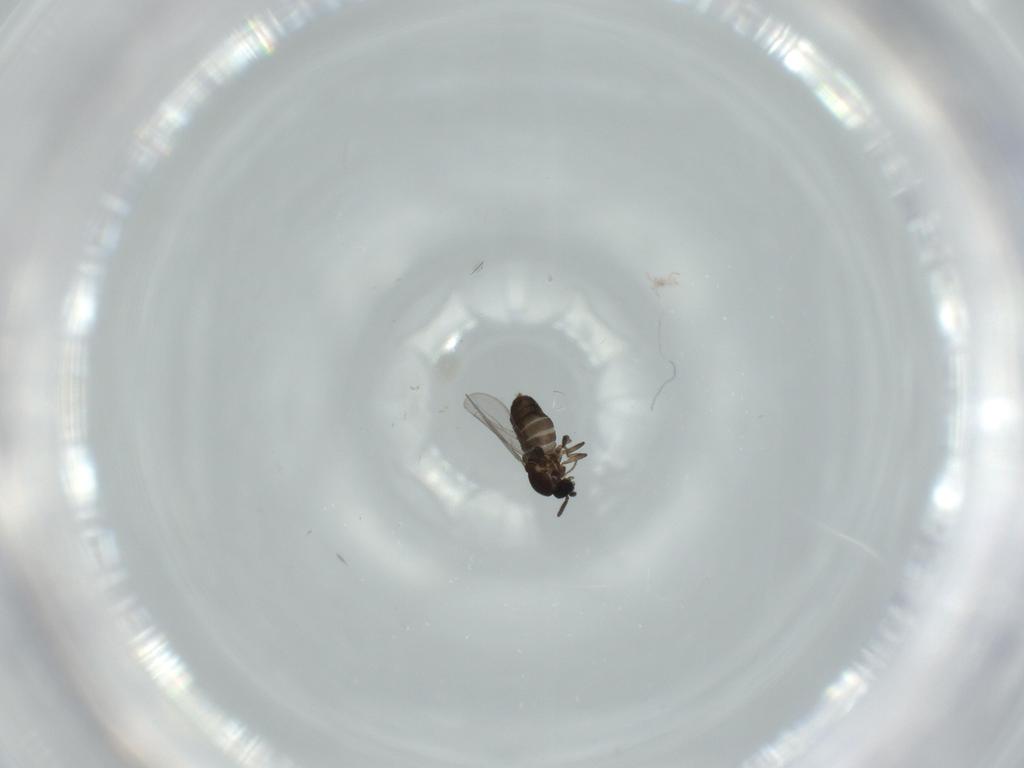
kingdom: Animalia
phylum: Arthropoda
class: Insecta
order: Diptera
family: Scatopsidae
